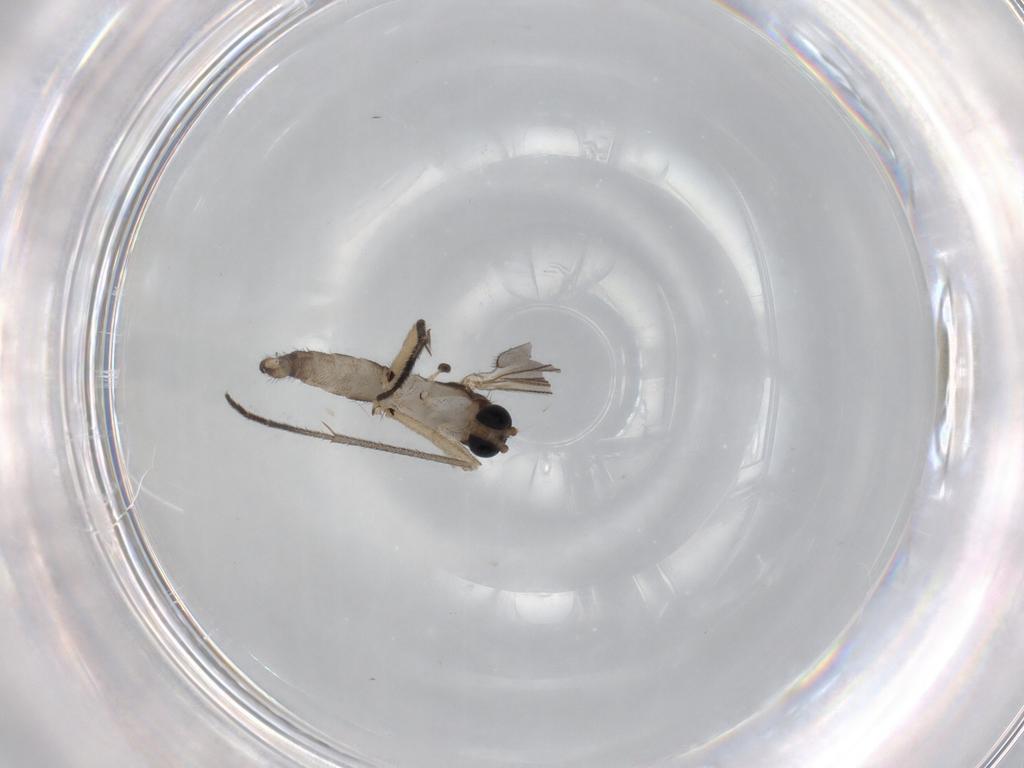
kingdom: Animalia
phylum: Arthropoda
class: Insecta
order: Diptera
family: Sciaridae
